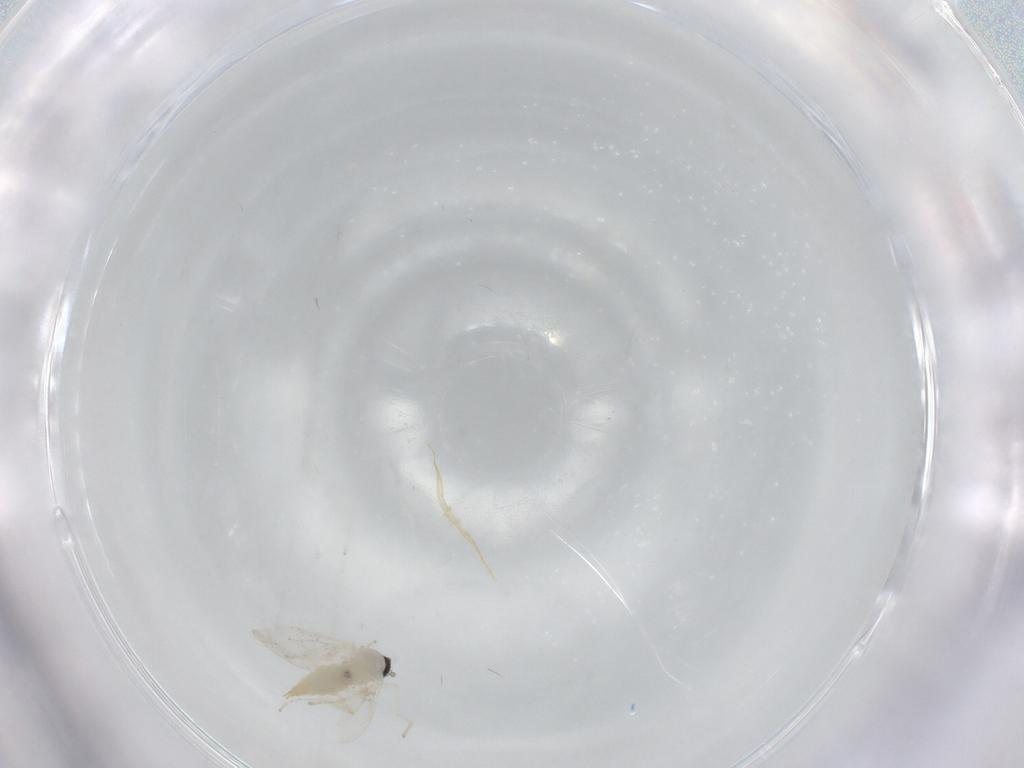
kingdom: Animalia
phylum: Arthropoda
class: Insecta
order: Diptera
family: Cecidomyiidae
